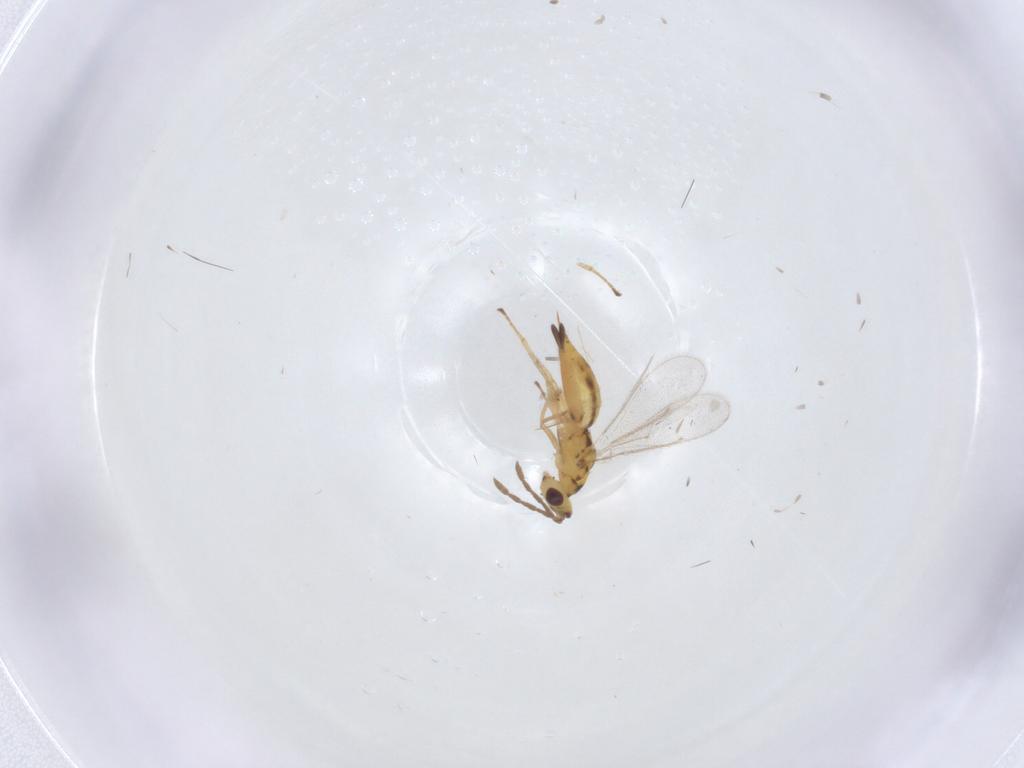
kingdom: Animalia
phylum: Arthropoda
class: Insecta
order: Hymenoptera
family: Eulophidae
